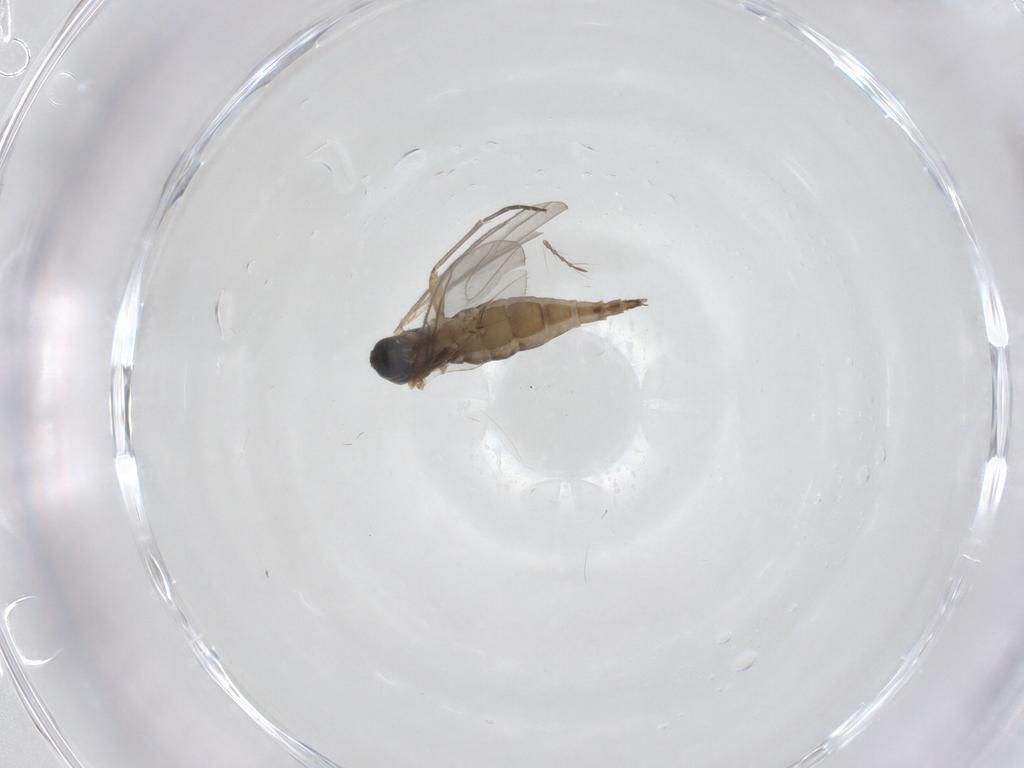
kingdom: Animalia
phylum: Arthropoda
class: Insecta
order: Diptera
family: Sciaridae
